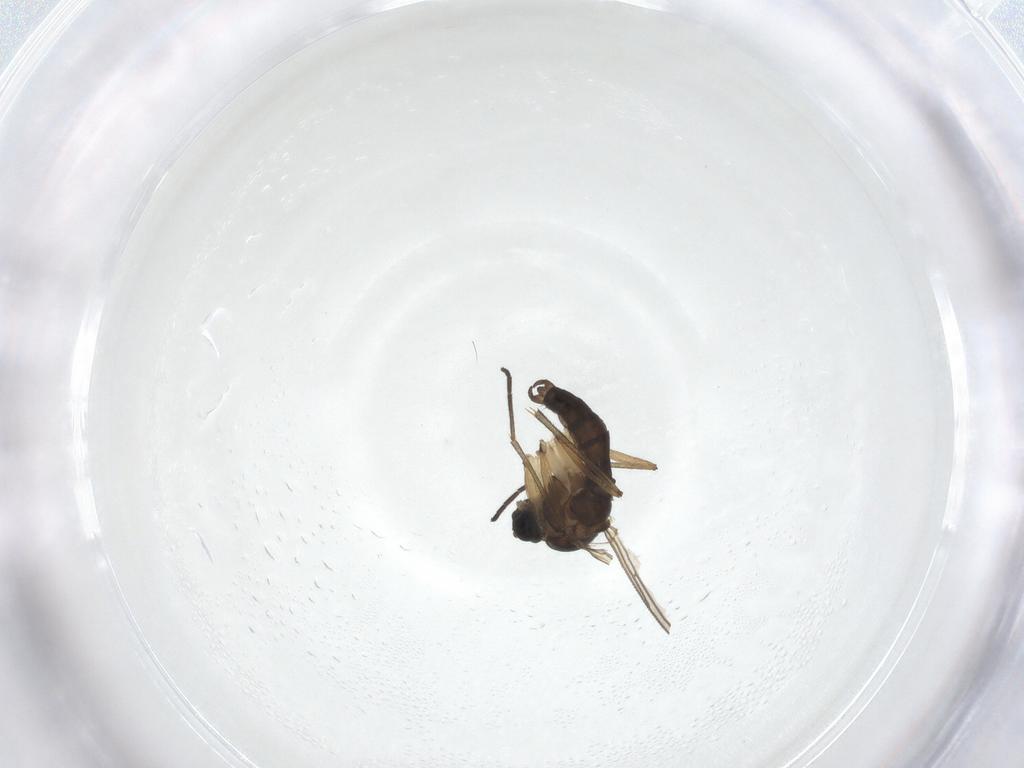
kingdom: Animalia
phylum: Arthropoda
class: Insecta
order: Diptera
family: Sciaridae
